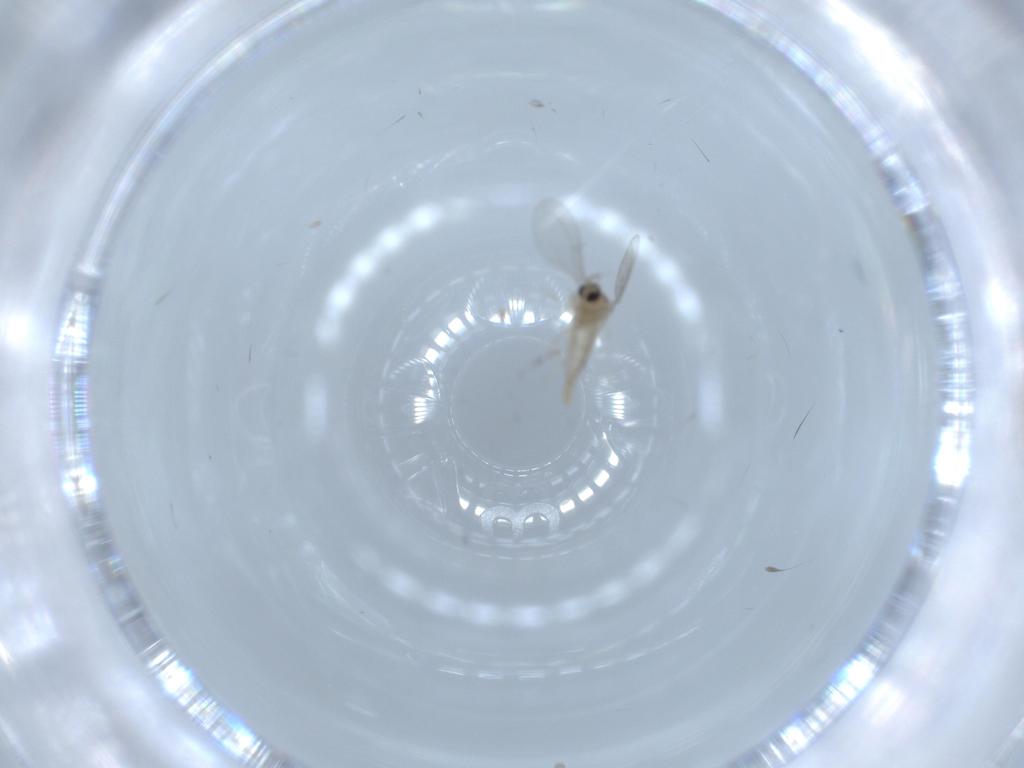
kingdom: Animalia
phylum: Arthropoda
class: Insecta
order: Diptera
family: Cecidomyiidae
